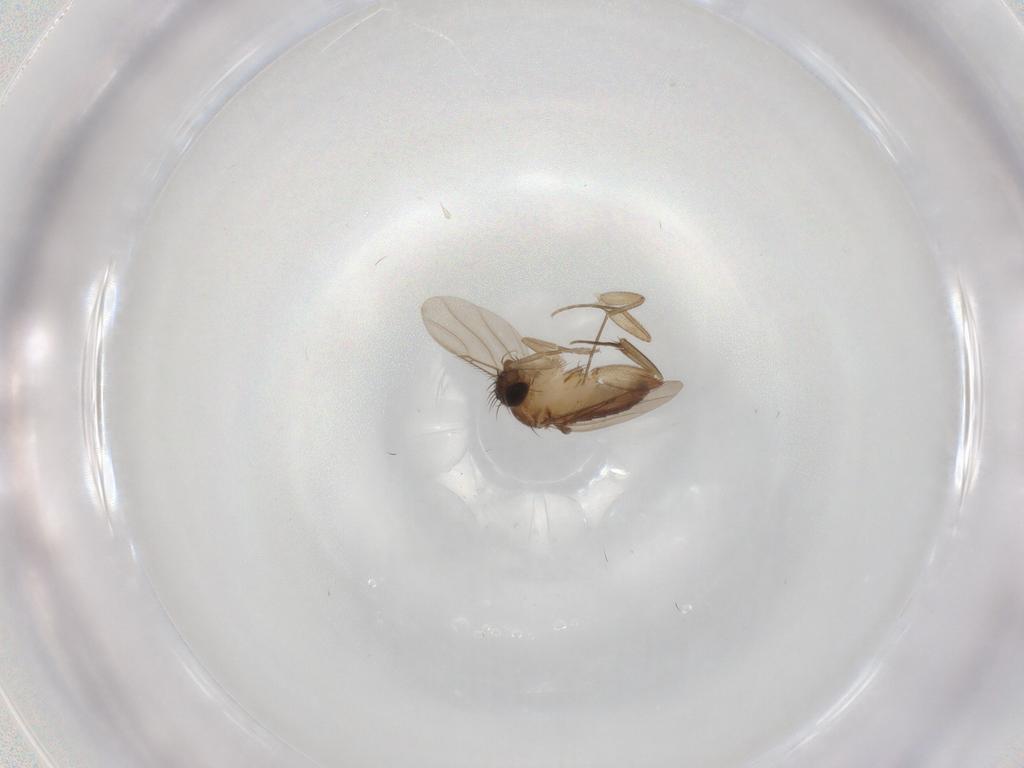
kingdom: Animalia
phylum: Arthropoda
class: Insecta
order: Diptera
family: Phoridae
